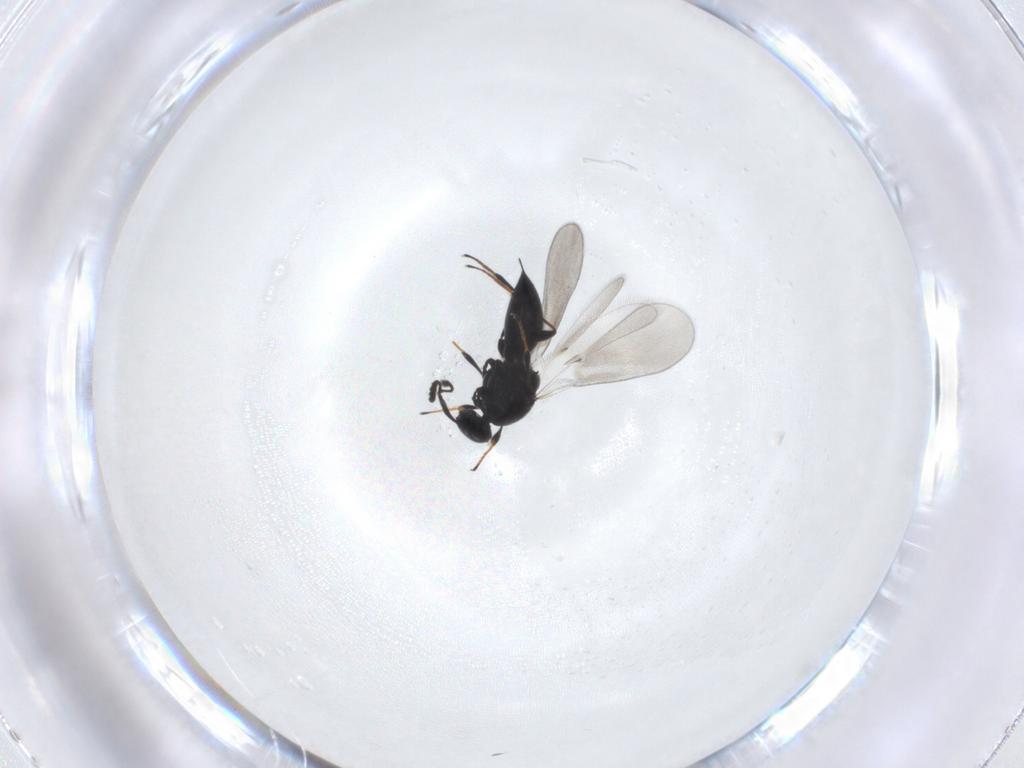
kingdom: Animalia
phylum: Arthropoda
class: Insecta
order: Hymenoptera
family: Platygastridae
